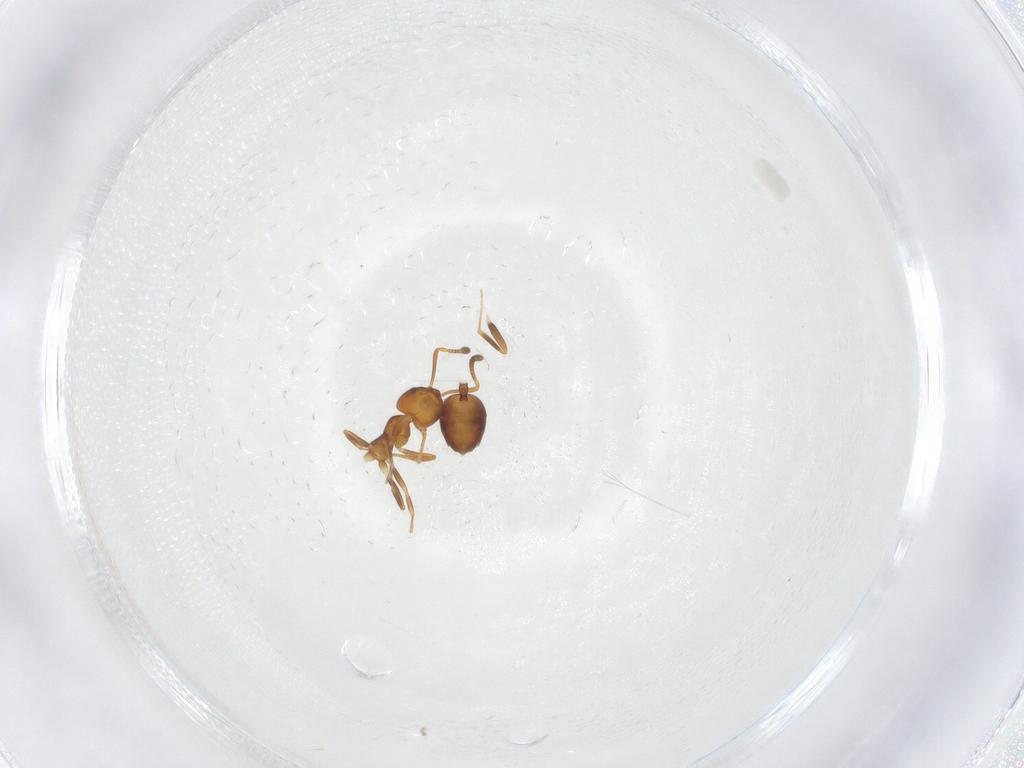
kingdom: Animalia
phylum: Arthropoda
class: Insecta
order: Hymenoptera
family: Formicidae
